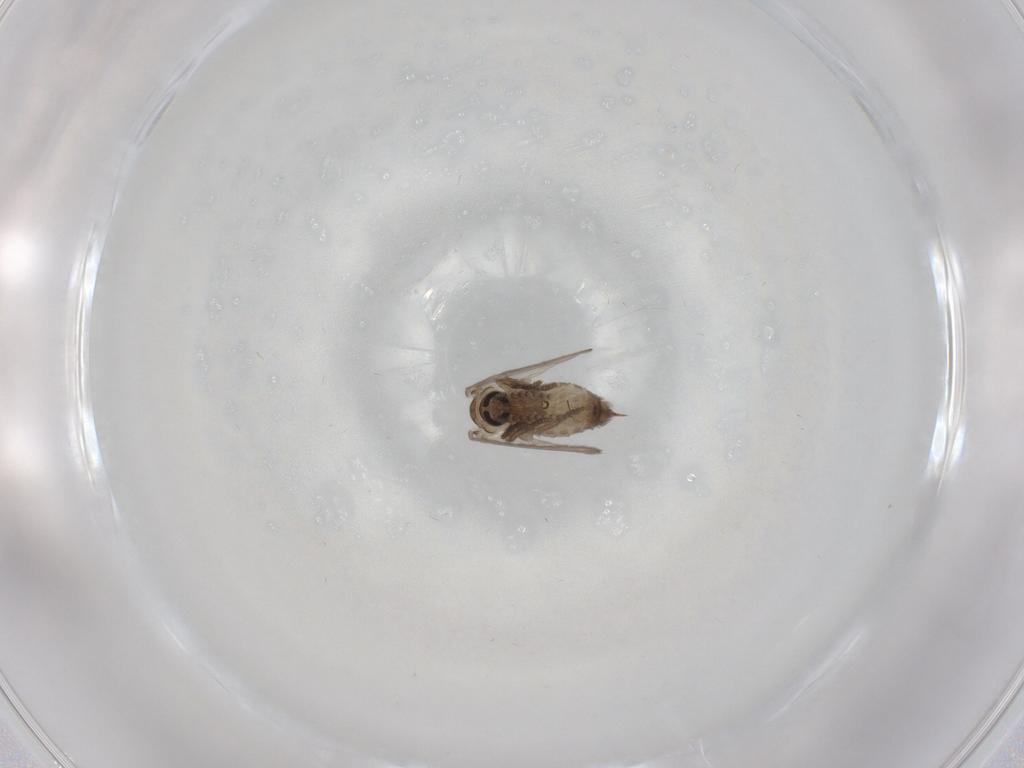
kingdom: Animalia
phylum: Arthropoda
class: Insecta
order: Diptera
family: Psychodidae
